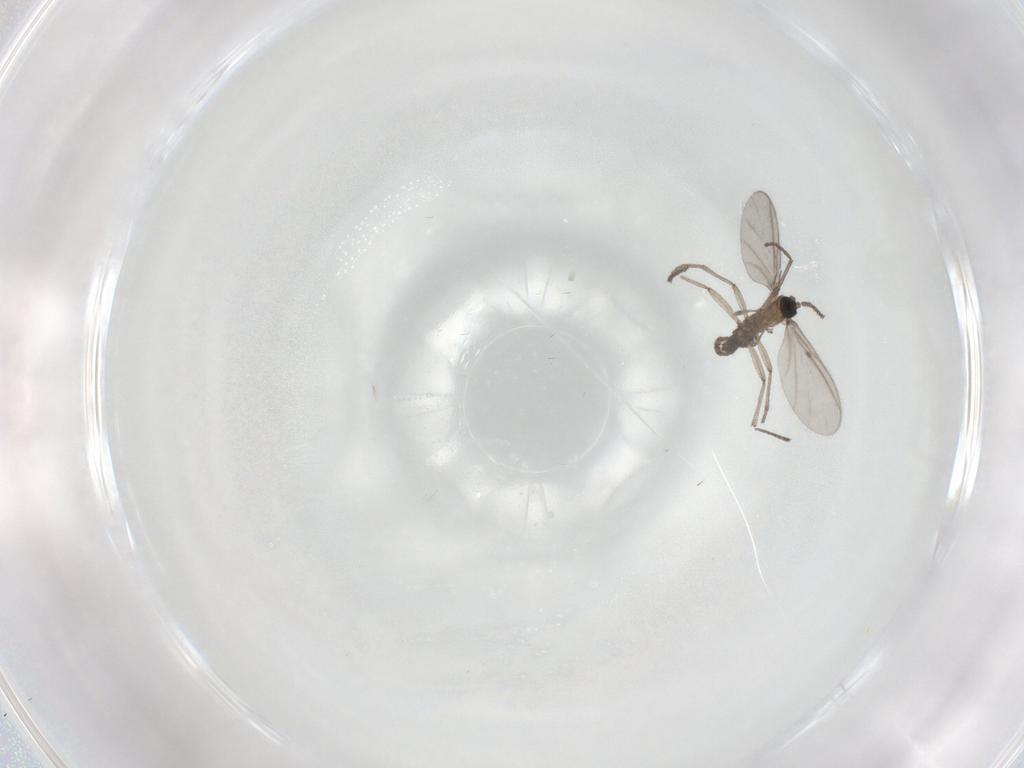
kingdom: Animalia
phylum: Arthropoda
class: Insecta
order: Diptera
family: Sciaridae
